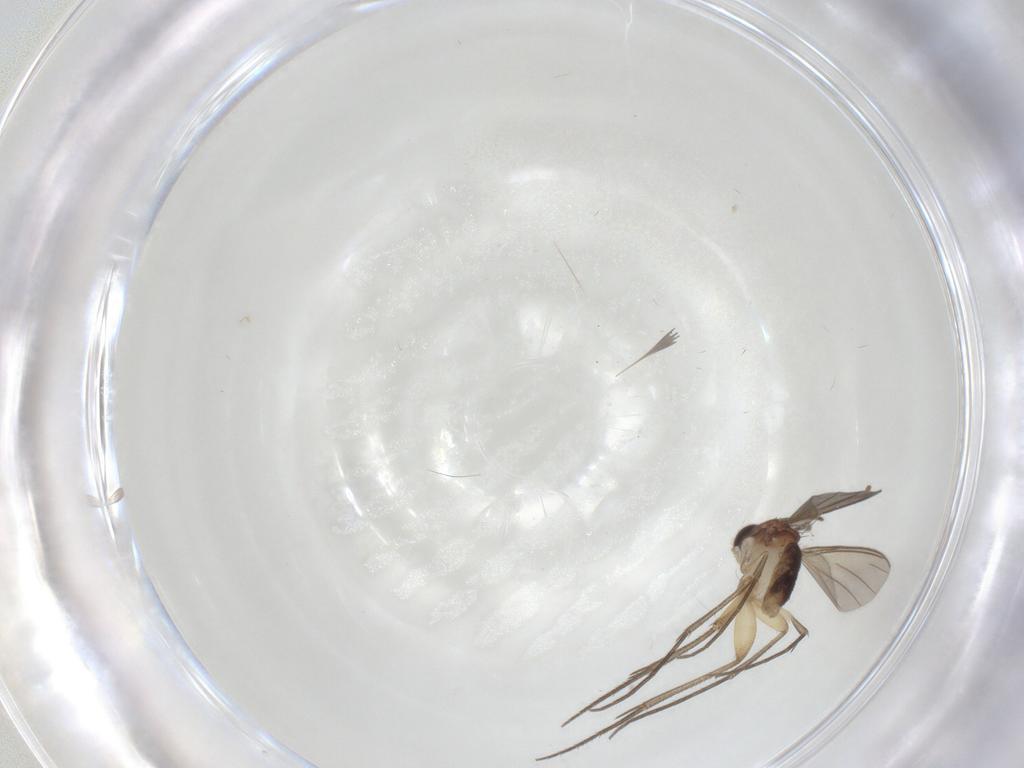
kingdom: Animalia
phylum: Arthropoda
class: Insecta
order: Diptera
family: Mycetophilidae
